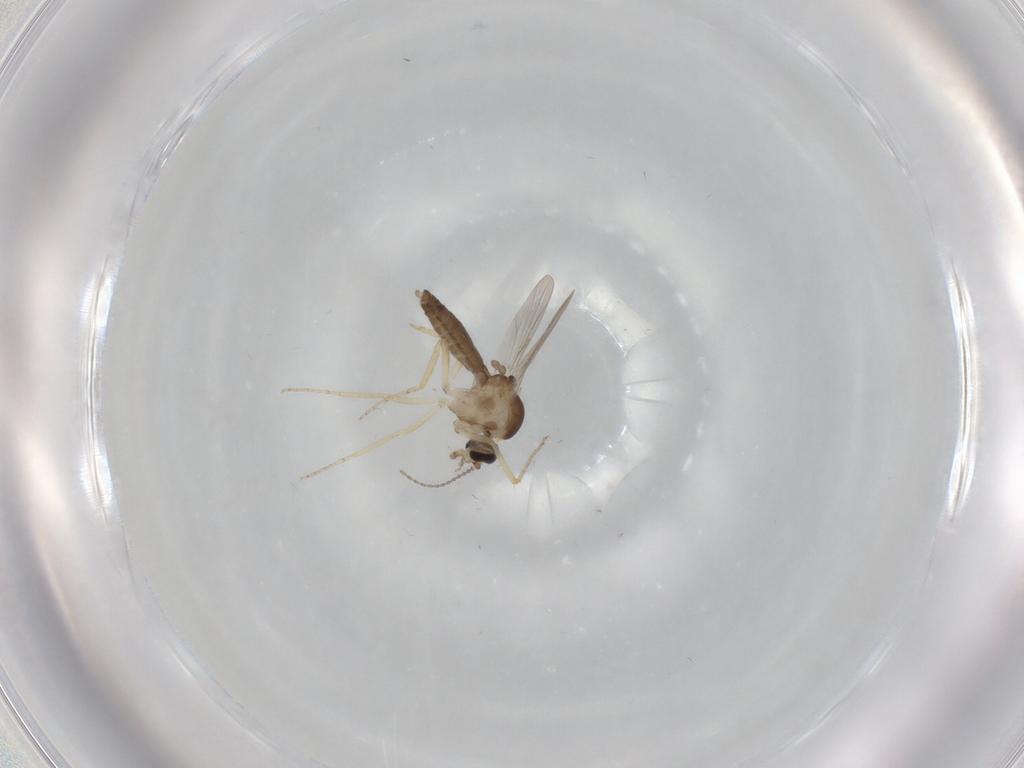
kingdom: Animalia
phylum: Arthropoda
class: Insecta
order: Diptera
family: Ceratopogonidae
